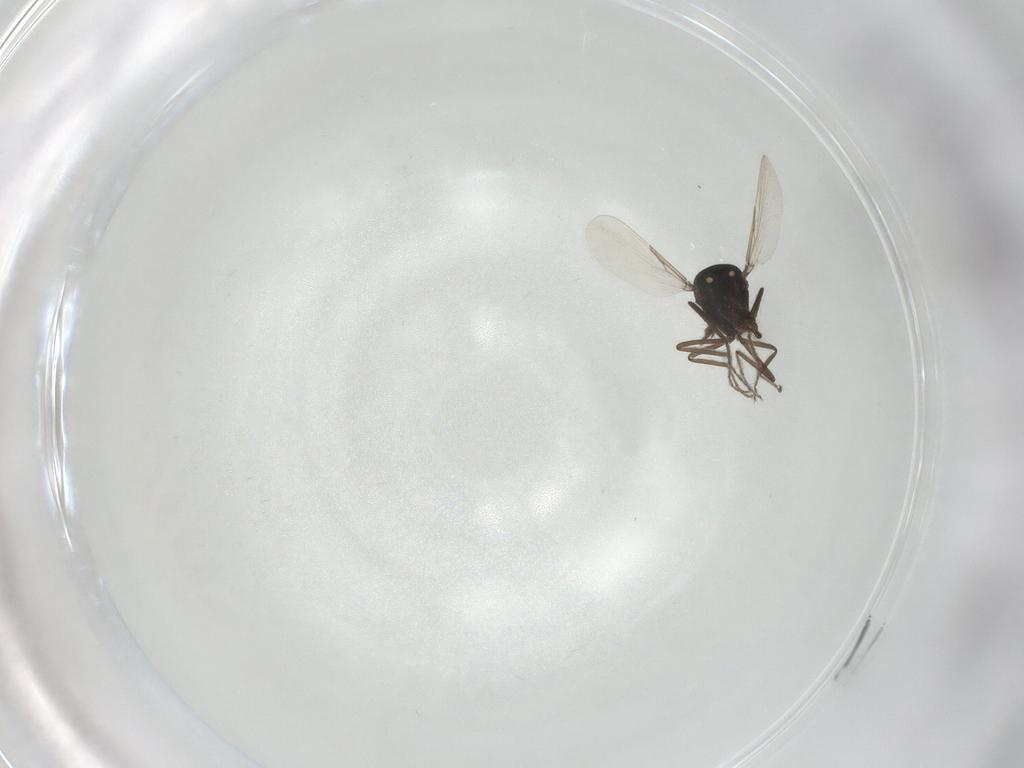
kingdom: Animalia
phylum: Arthropoda
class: Insecta
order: Diptera
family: Ceratopogonidae
